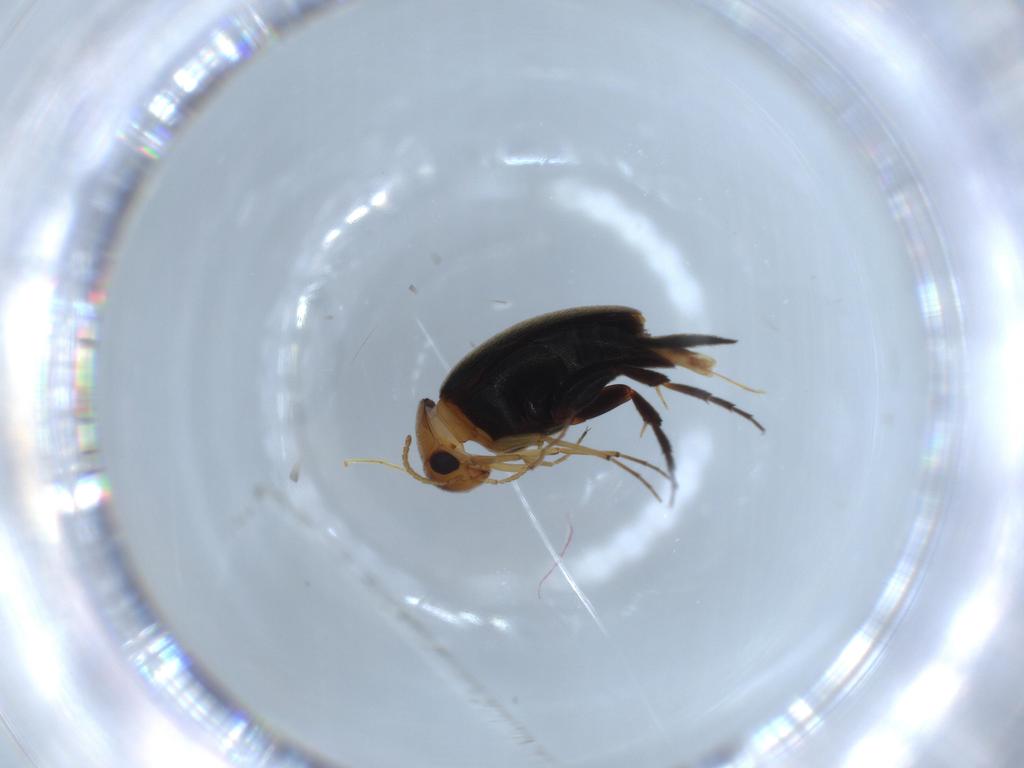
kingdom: Animalia
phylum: Arthropoda
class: Insecta
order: Coleoptera
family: Mordellidae
